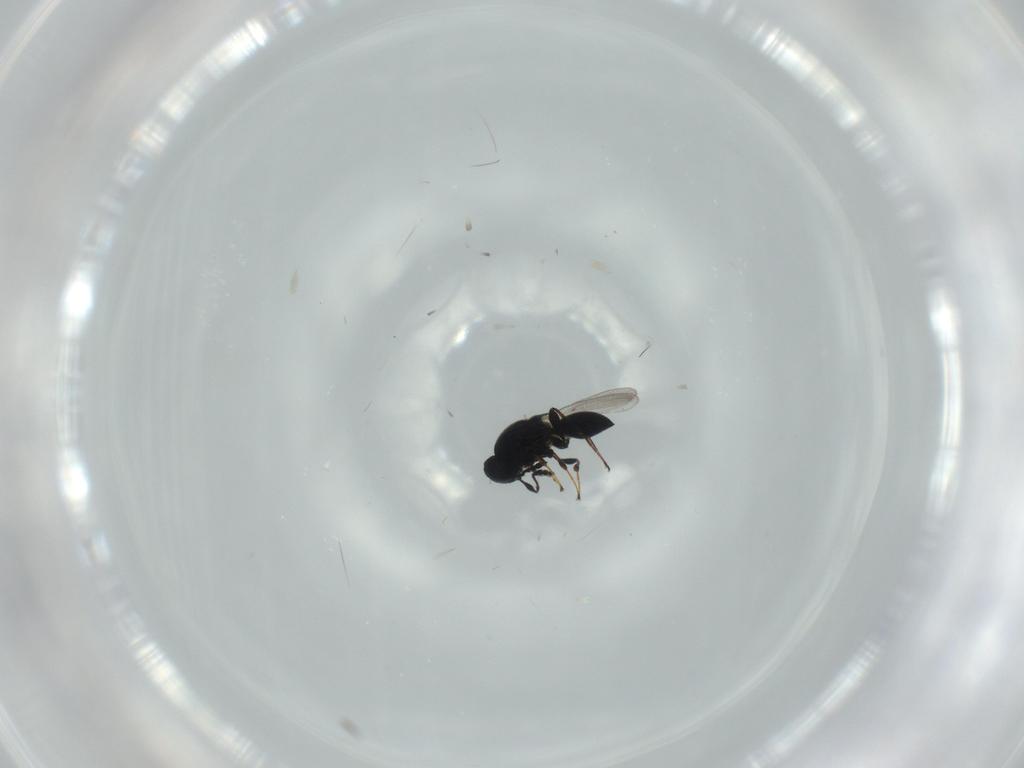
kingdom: Animalia
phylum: Arthropoda
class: Insecta
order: Hymenoptera
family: Platygastridae
